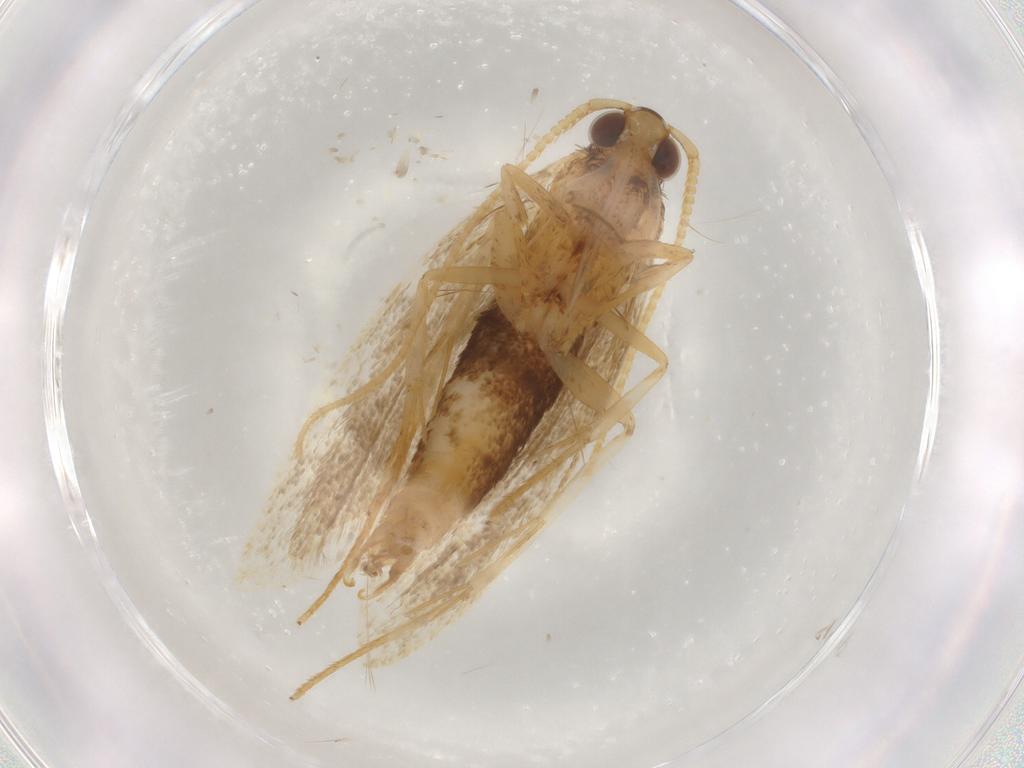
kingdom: Animalia
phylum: Arthropoda
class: Insecta
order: Lepidoptera
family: Lecithoceridae
